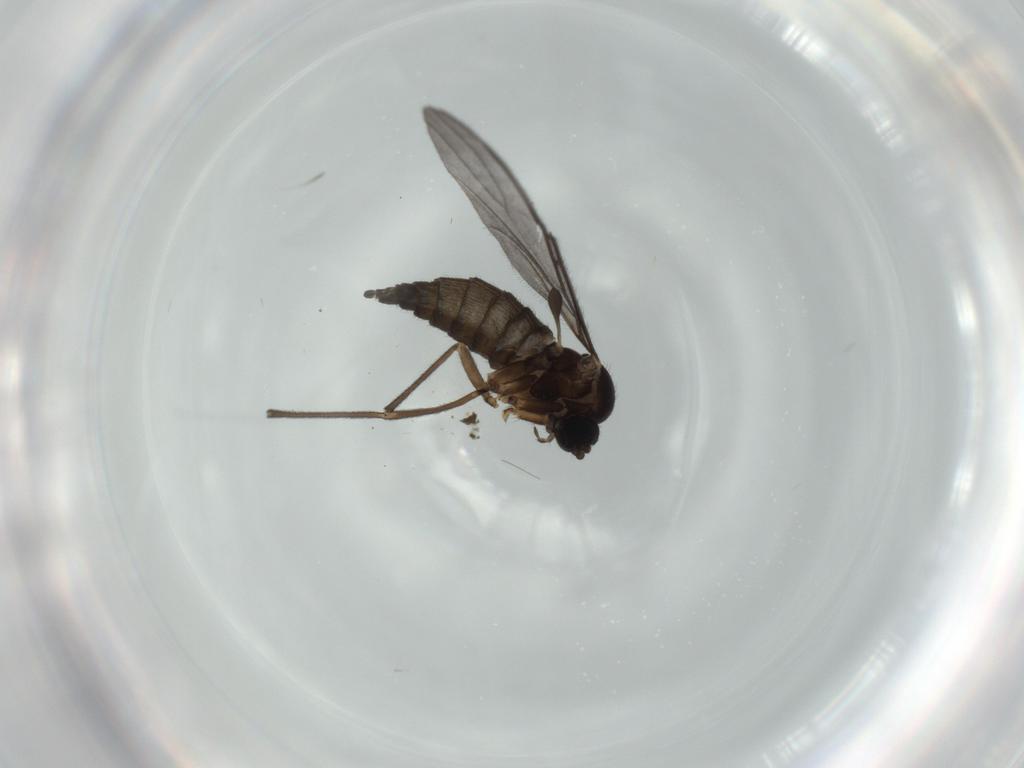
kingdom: Animalia
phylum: Arthropoda
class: Insecta
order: Diptera
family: Sciaridae
